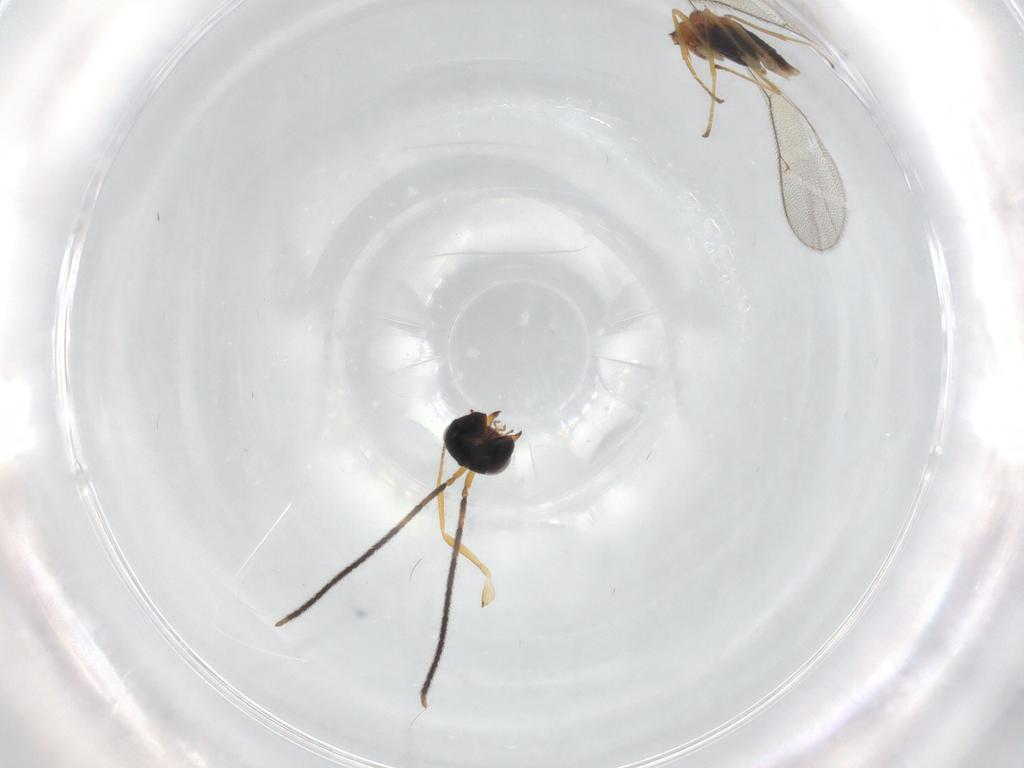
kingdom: Animalia
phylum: Arthropoda
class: Insecta
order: Hymenoptera
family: Pteromalidae
